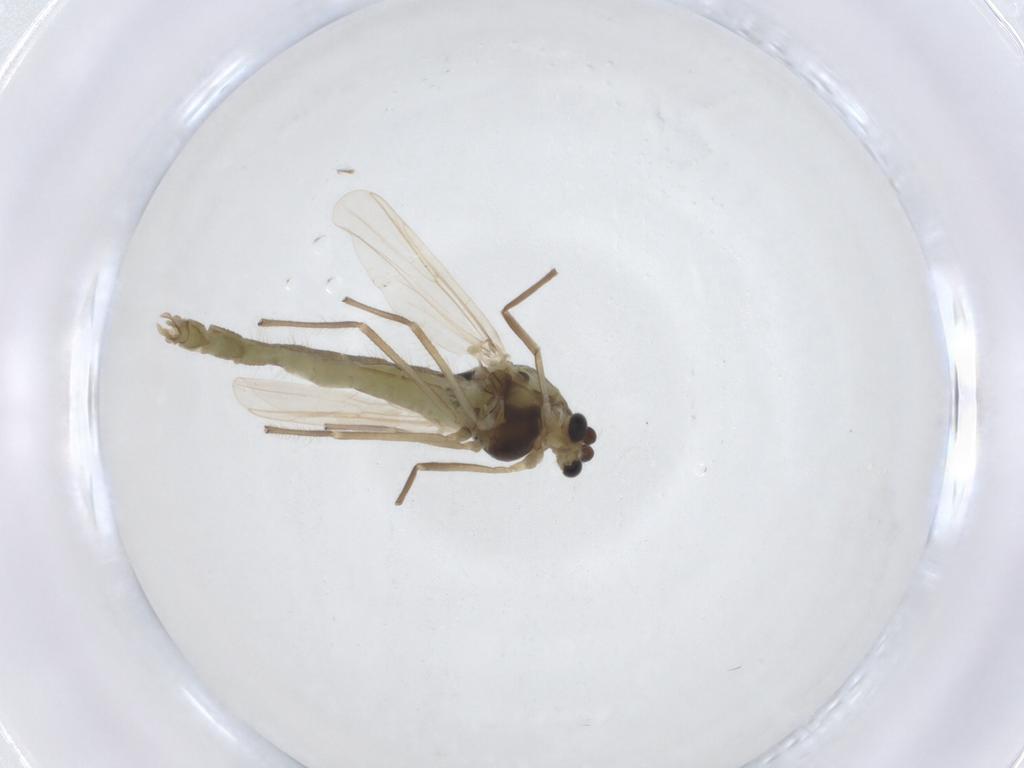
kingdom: Animalia
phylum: Arthropoda
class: Insecta
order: Diptera
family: Chironomidae
